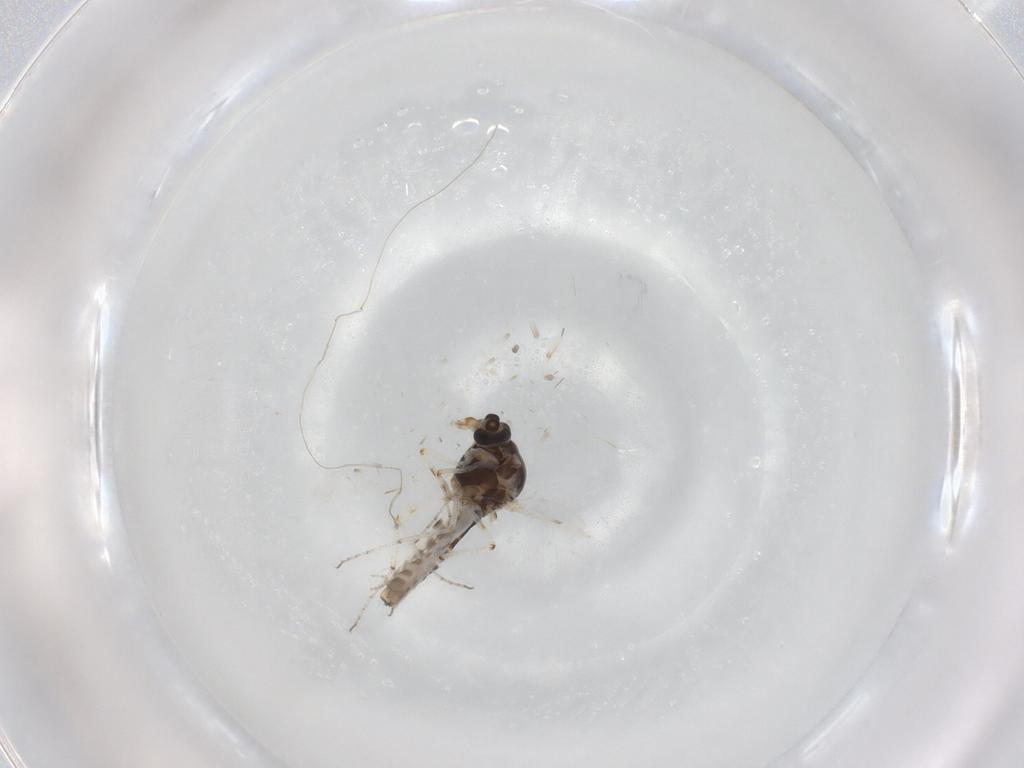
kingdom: Animalia
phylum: Arthropoda
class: Insecta
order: Diptera
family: Ceratopogonidae
